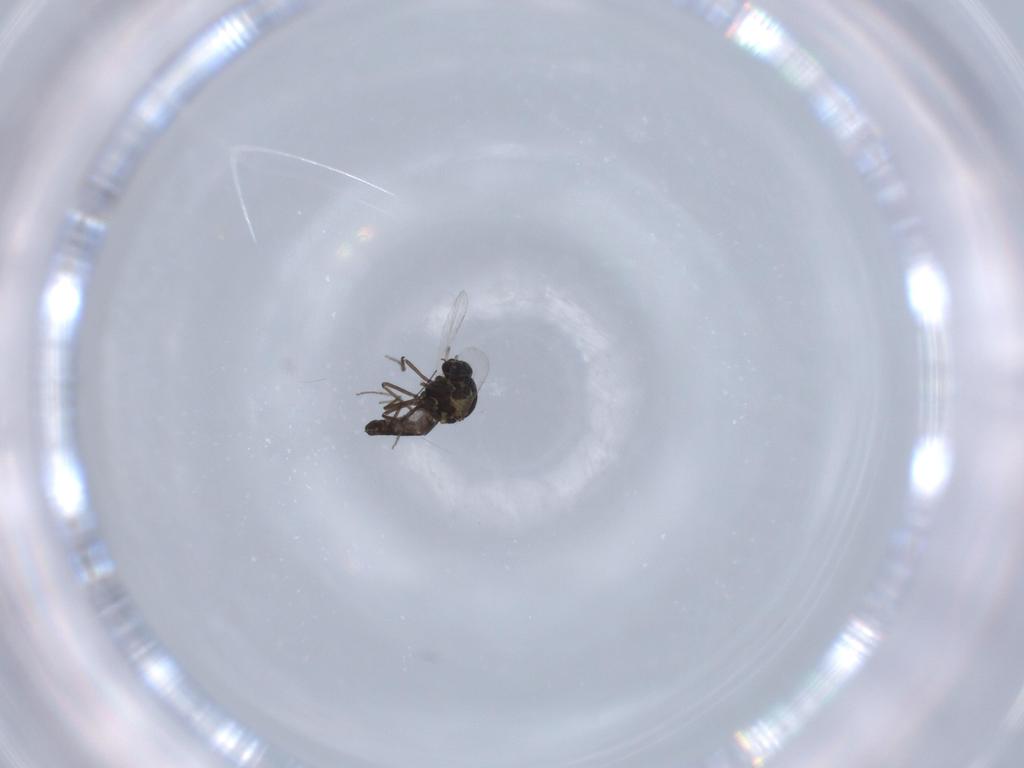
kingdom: Animalia
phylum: Arthropoda
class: Insecta
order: Diptera
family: Ceratopogonidae
